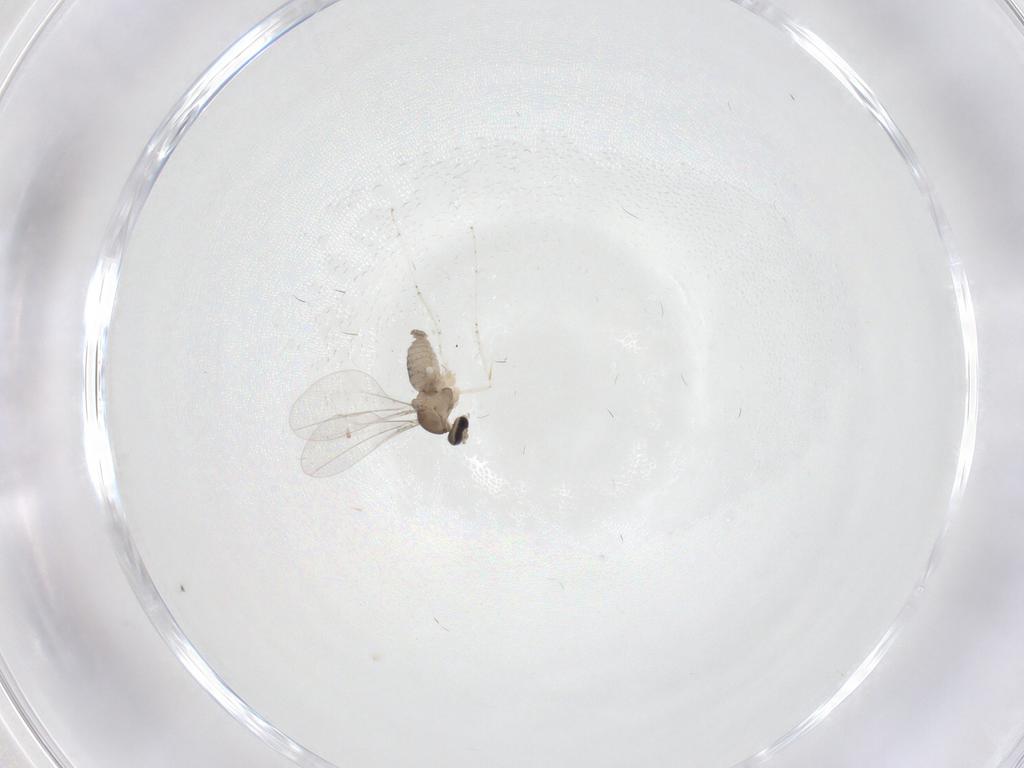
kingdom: Animalia
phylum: Arthropoda
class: Insecta
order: Diptera
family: Cecidomyiidae
